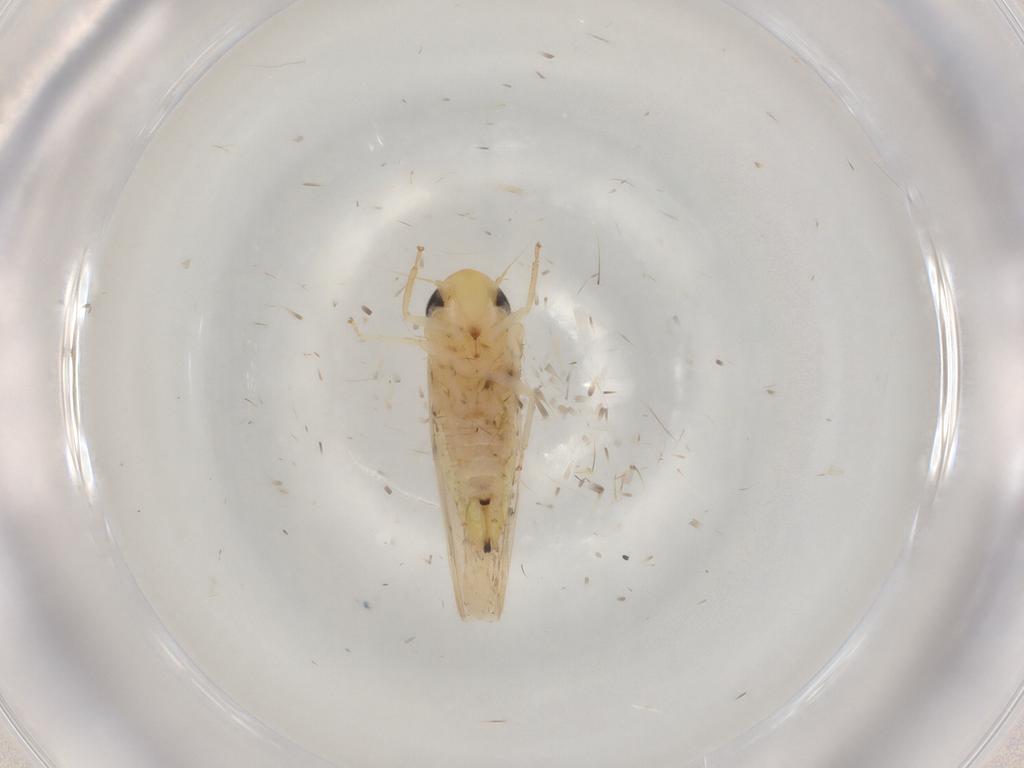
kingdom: Animalia
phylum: Arthropoda
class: Insecta
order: Hemiptera
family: Cicadellidae
